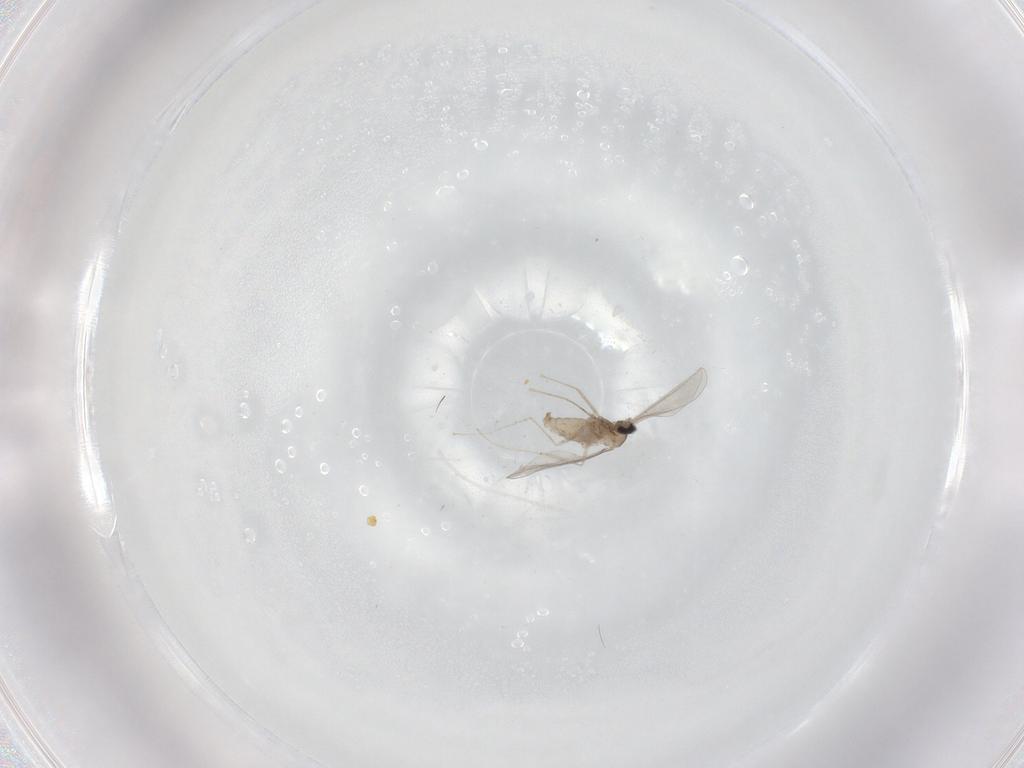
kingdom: Animalia
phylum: Arthropoda
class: Insecta
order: Diptera
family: Cecidomyiidae
